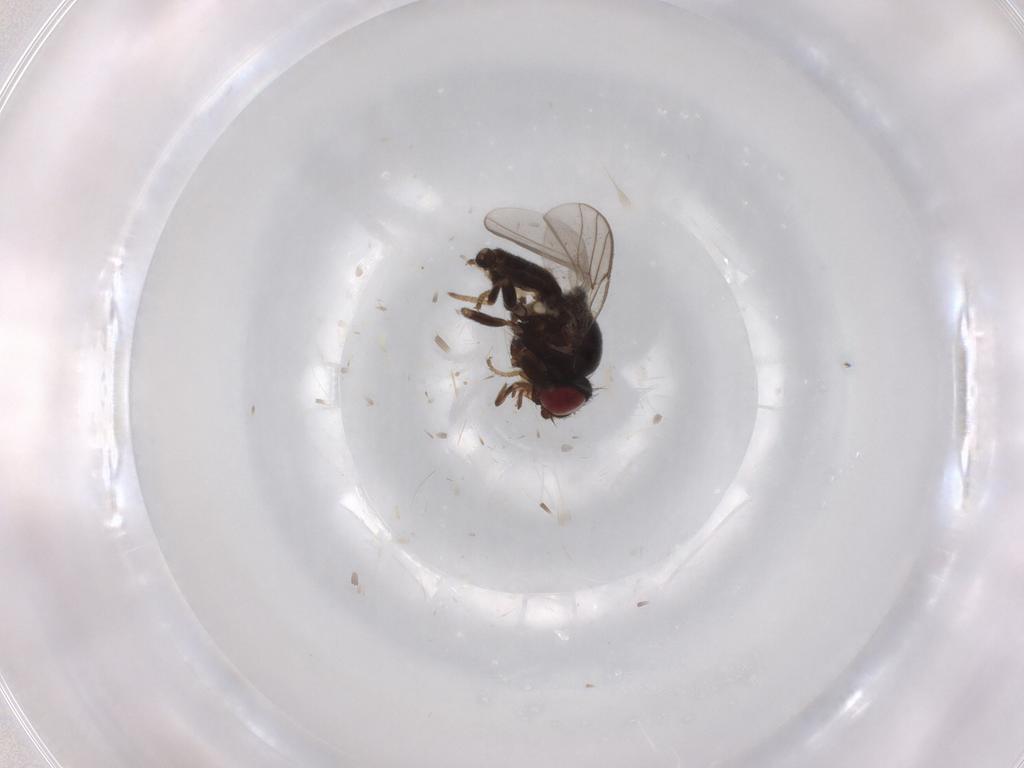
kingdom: Animalia
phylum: Arthropoda
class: Insecta
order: Diptera
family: Chloropidae
